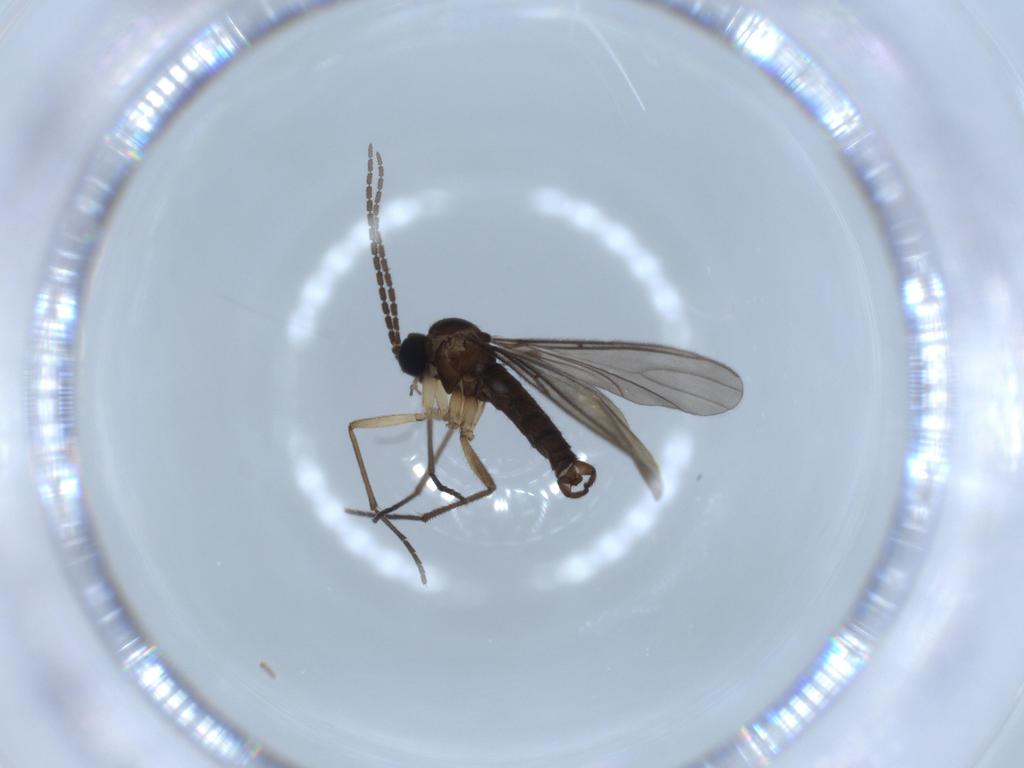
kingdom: Animalia
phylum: Arthropoda
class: Insecta
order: Diptera
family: Sciaridae
